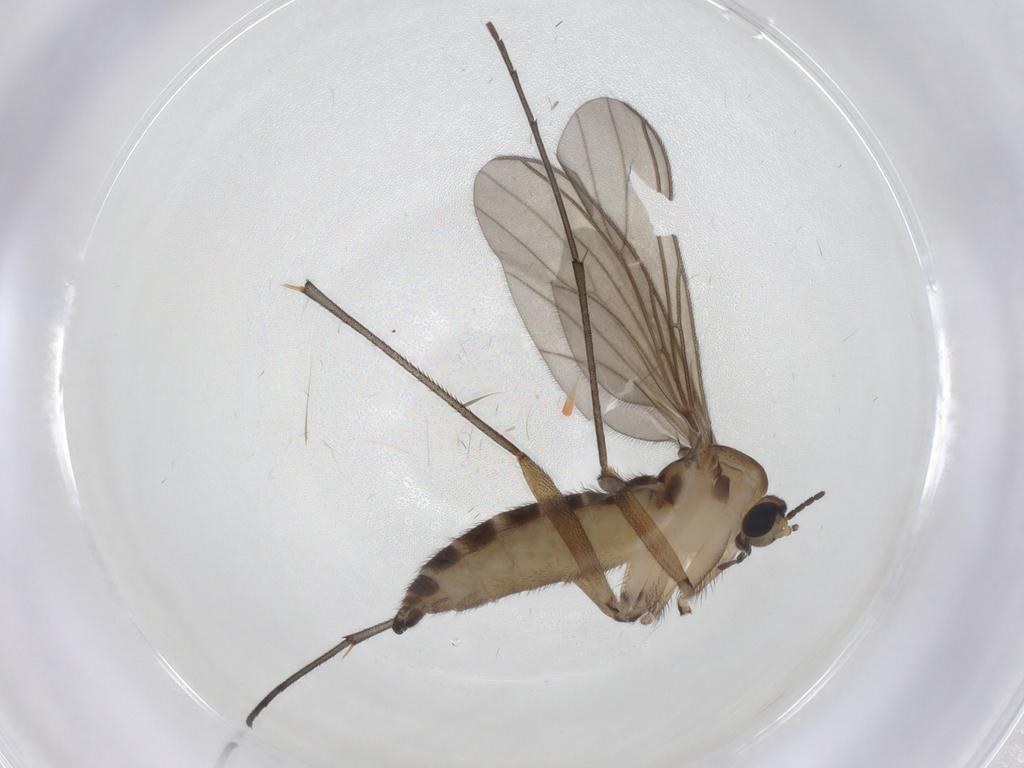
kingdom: Animalia
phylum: Arthropoda
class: Insecta
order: Diptera
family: Sciaridae
